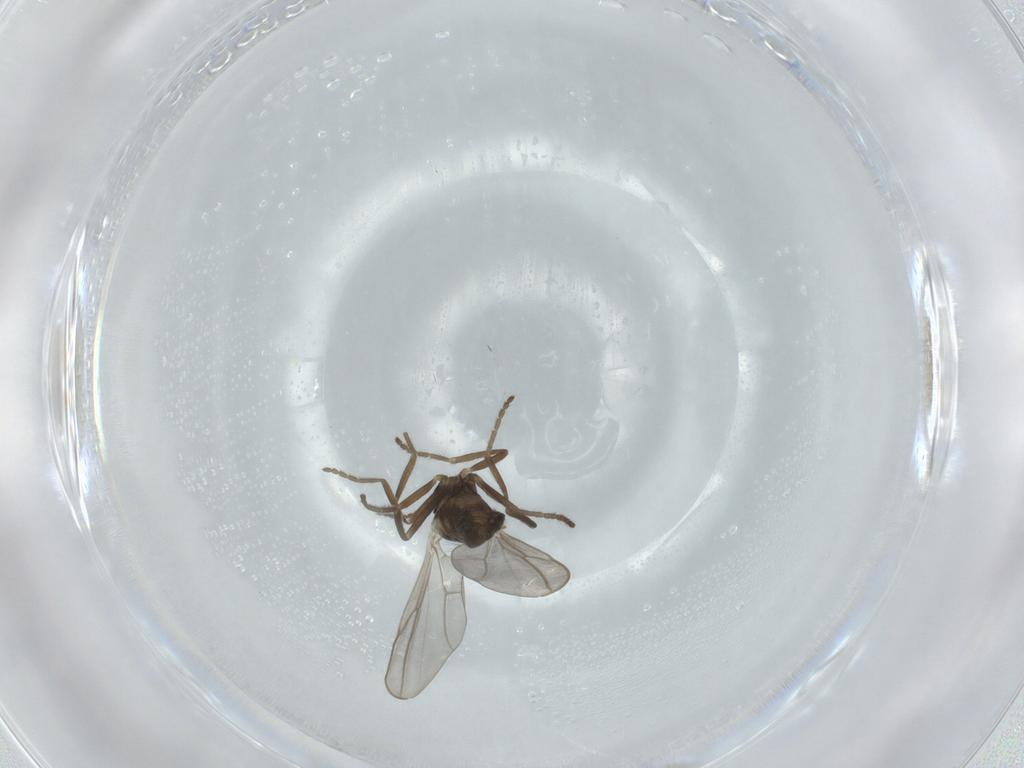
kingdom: Animalia
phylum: Arthropoda
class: Insecta
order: Diptera
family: Cecidomyiidae
